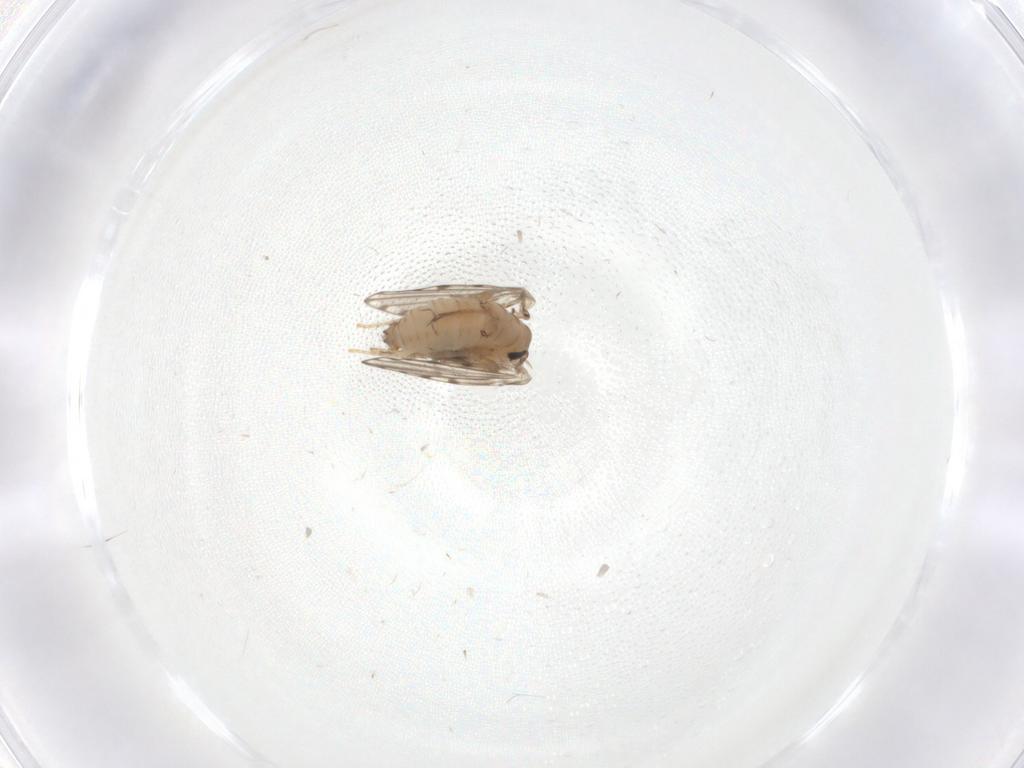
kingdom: Animalia
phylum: Arthropoda
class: Insecta
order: Diptera
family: Psychodidae
